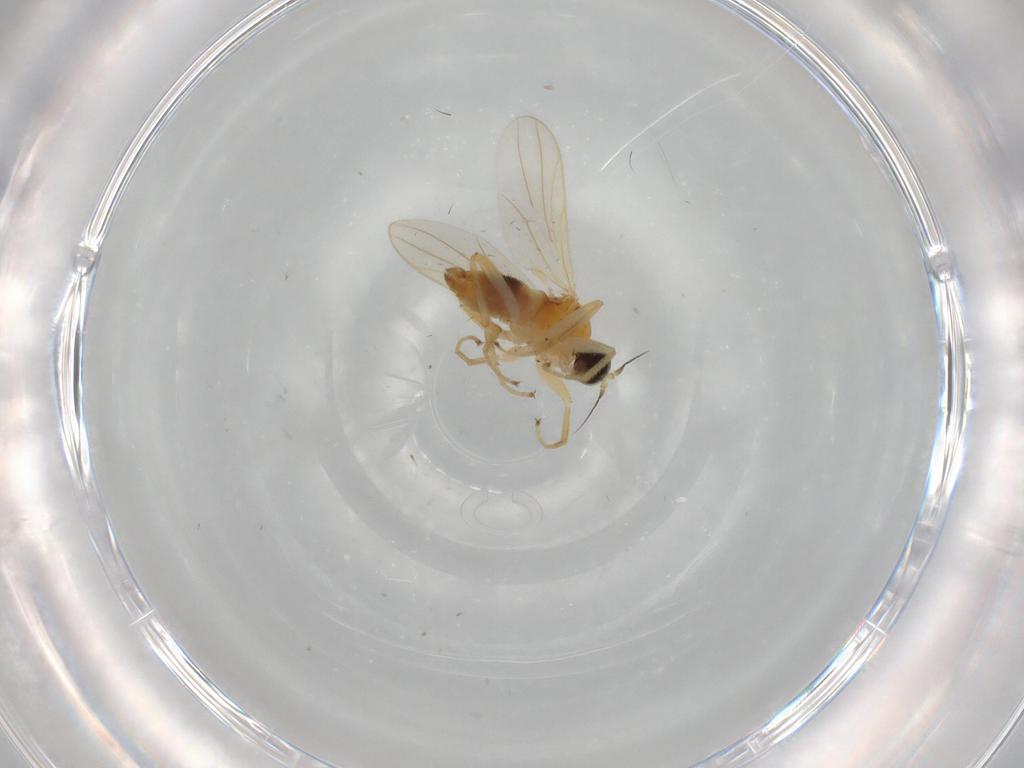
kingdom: Animalia
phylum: Arthropoda
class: Insecta
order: Diptera
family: Hybotidae
